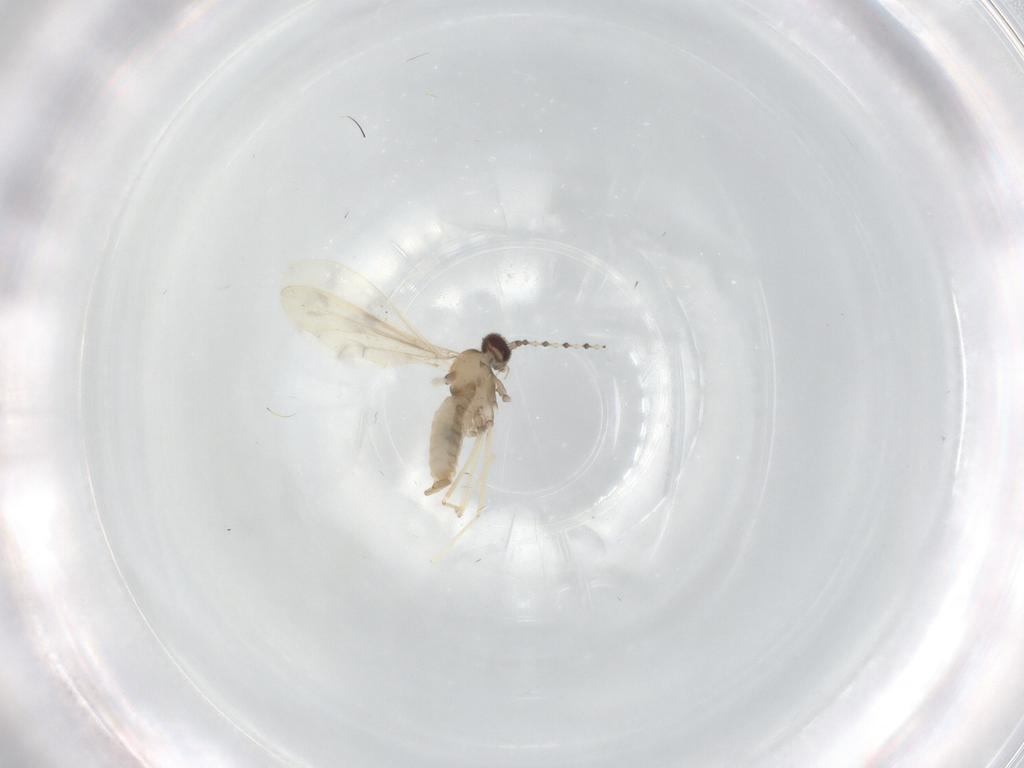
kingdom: Animalia
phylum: Arthropoda
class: Insecta
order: Diptera
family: Cecidomyiidae
